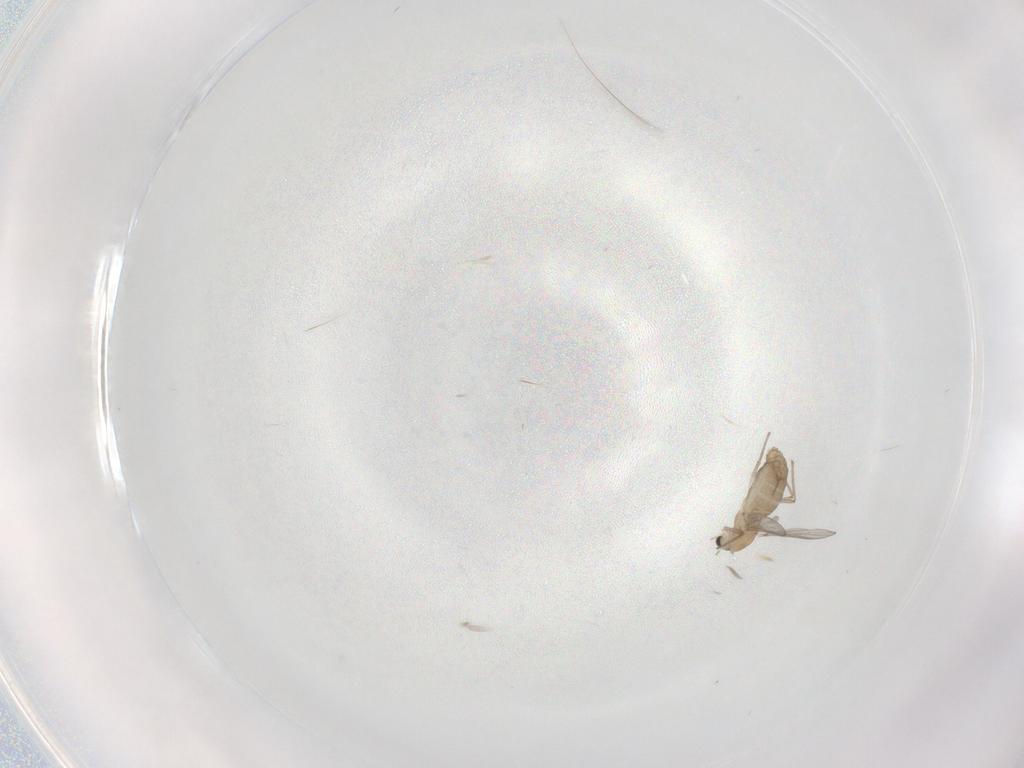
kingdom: Animalia
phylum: Arthropoda
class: Insecta
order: Diptera
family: Chironomidae
